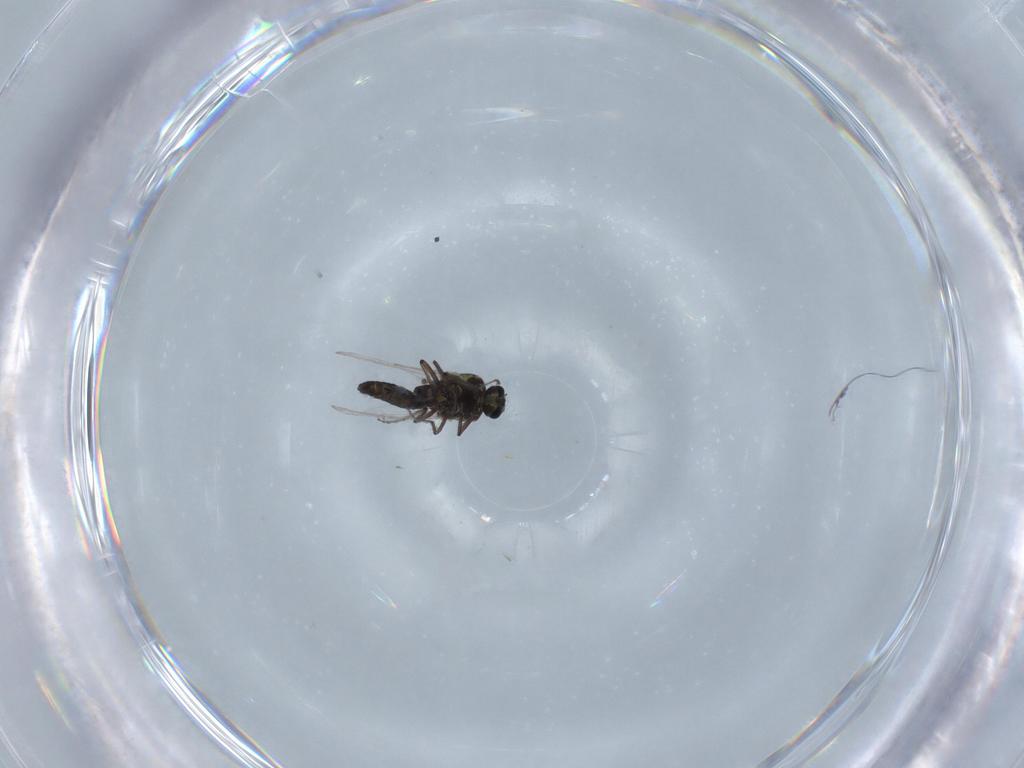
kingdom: Animalia
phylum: Arthropoda
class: Insecta
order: Diptera
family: Ceratopogonidae
